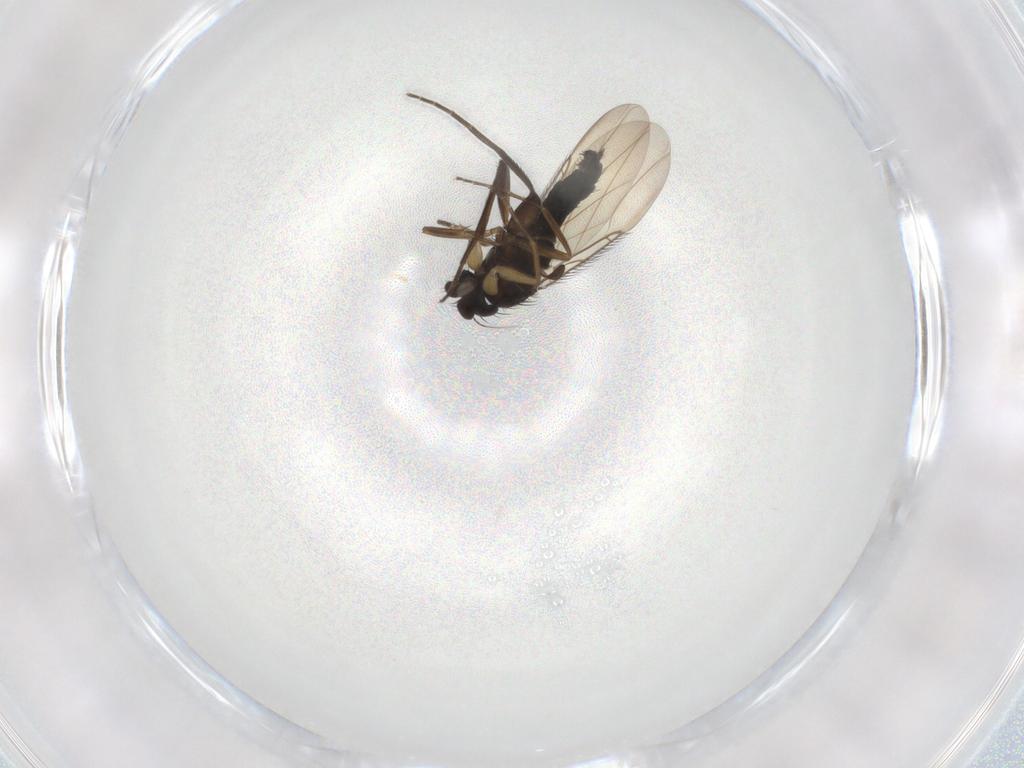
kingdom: Animalia
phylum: Arthropoda
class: Insecta
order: Diptera
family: Phoridae
